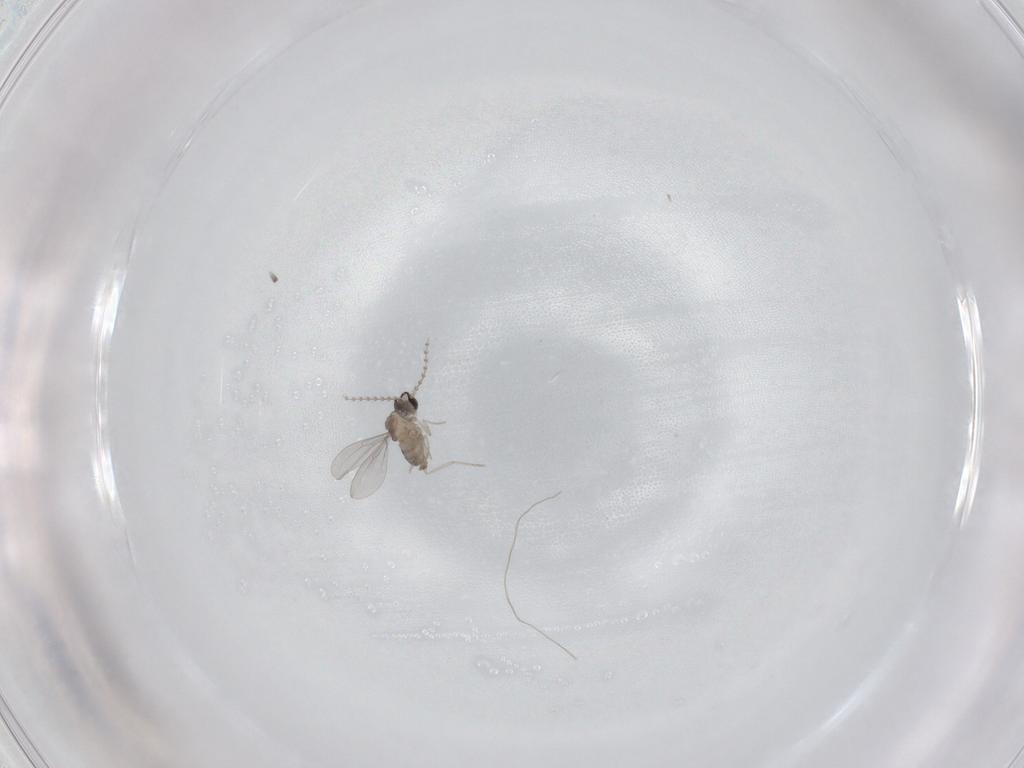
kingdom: Animalia
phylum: Arthropoda
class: Insecta
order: Diptera
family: Cecidomyiidae
